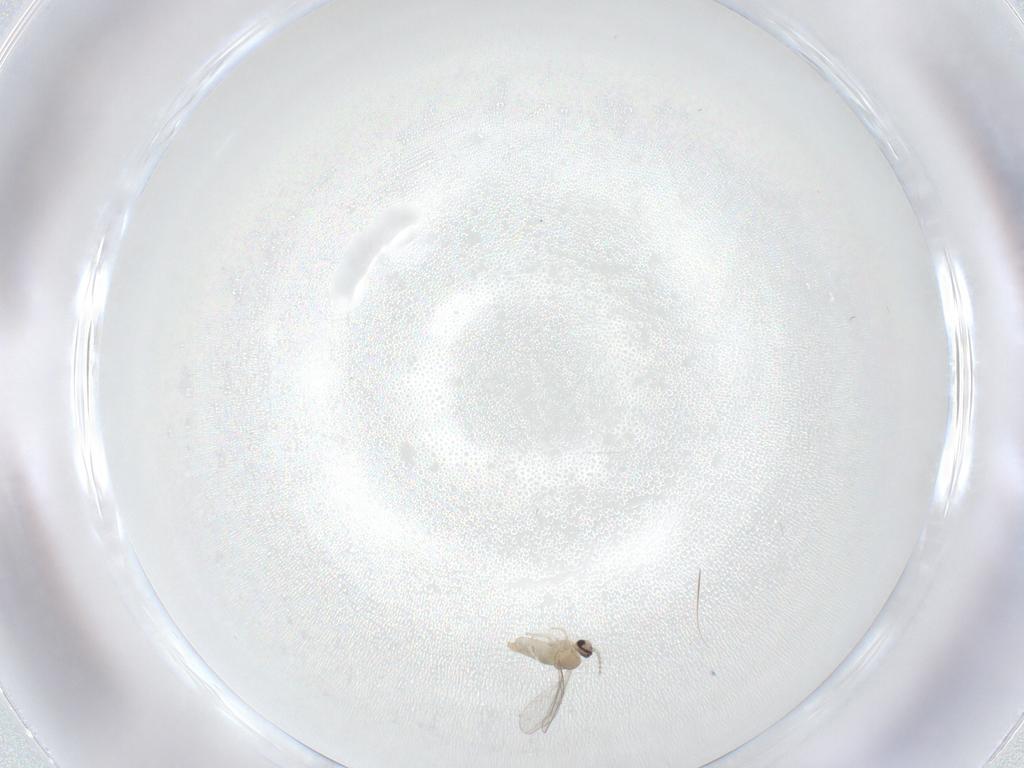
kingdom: Animalia
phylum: Arthropoda
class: Insecta
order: Diptera
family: Cecidomyiidae
